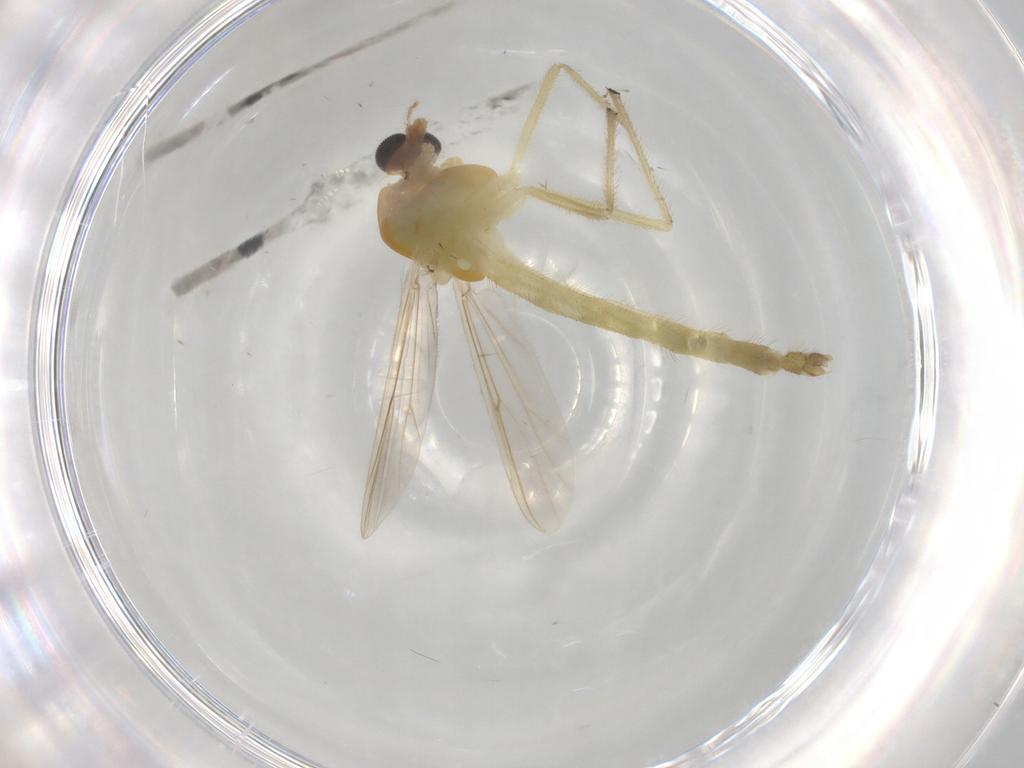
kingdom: Animalia
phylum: Arthropoda
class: Insecta
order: Diptera
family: Chironomidae
